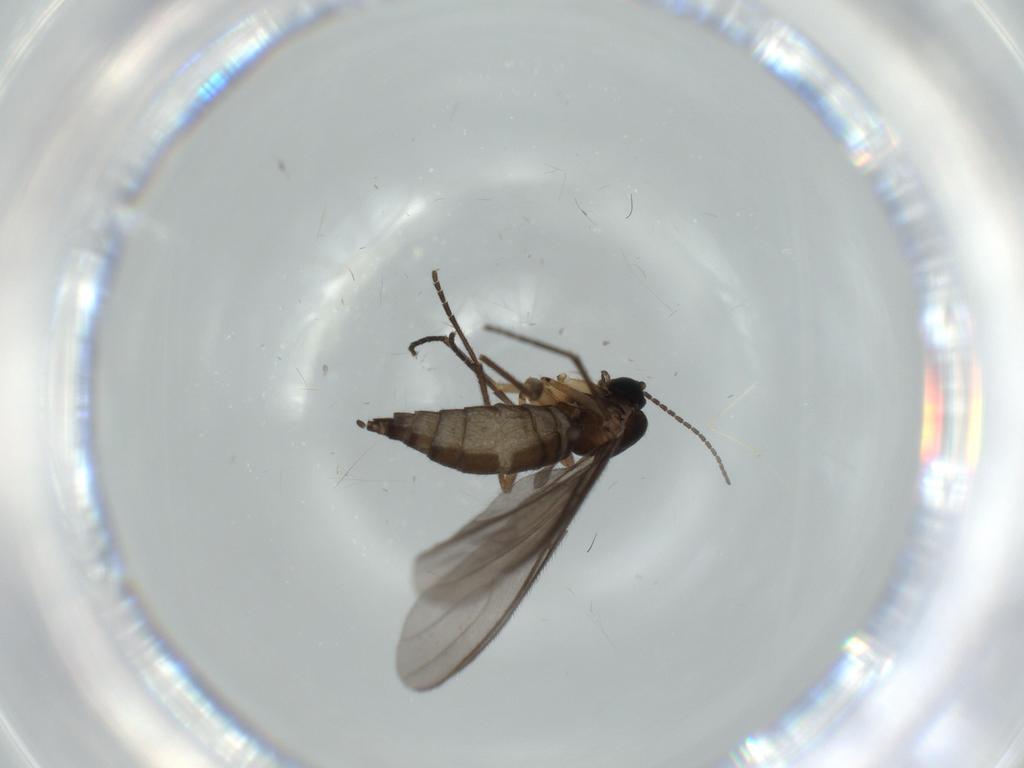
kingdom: Animalia
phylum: Arthropoda
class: Insecta
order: Diptera
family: Sciaridae
